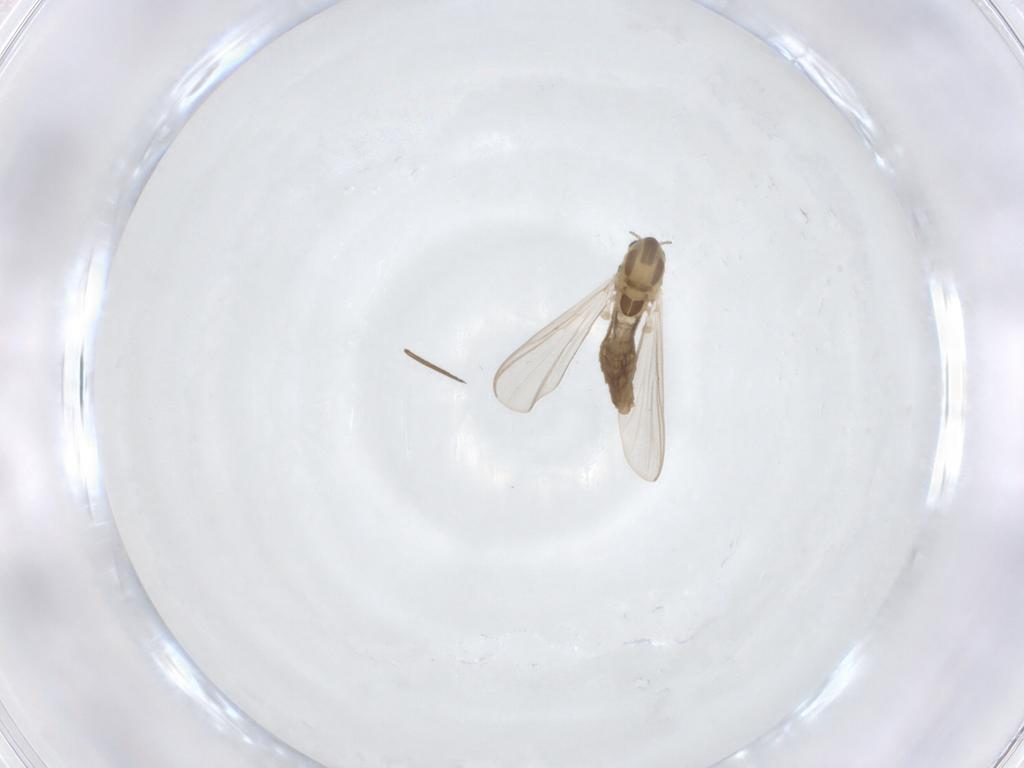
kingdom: Animalia
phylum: Arthropoda
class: Insecta
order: Diptera
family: Chironomidae
